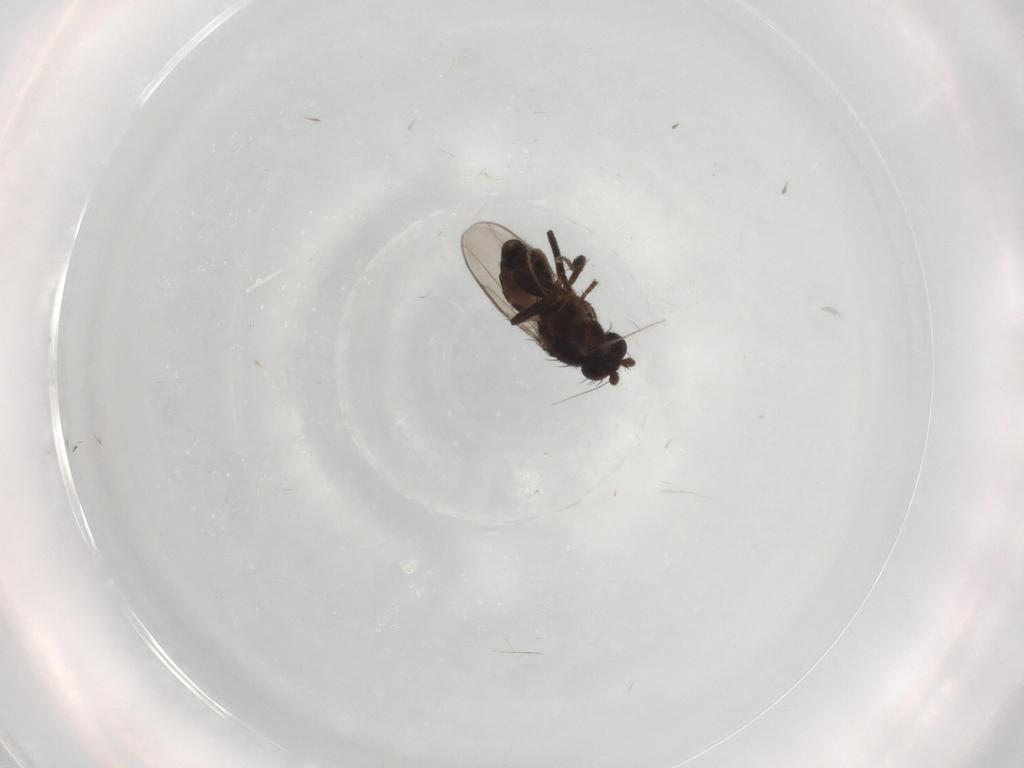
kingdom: Animalia
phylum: Arthropoda
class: Insecta
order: Diptera
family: Sphaeroceridae
